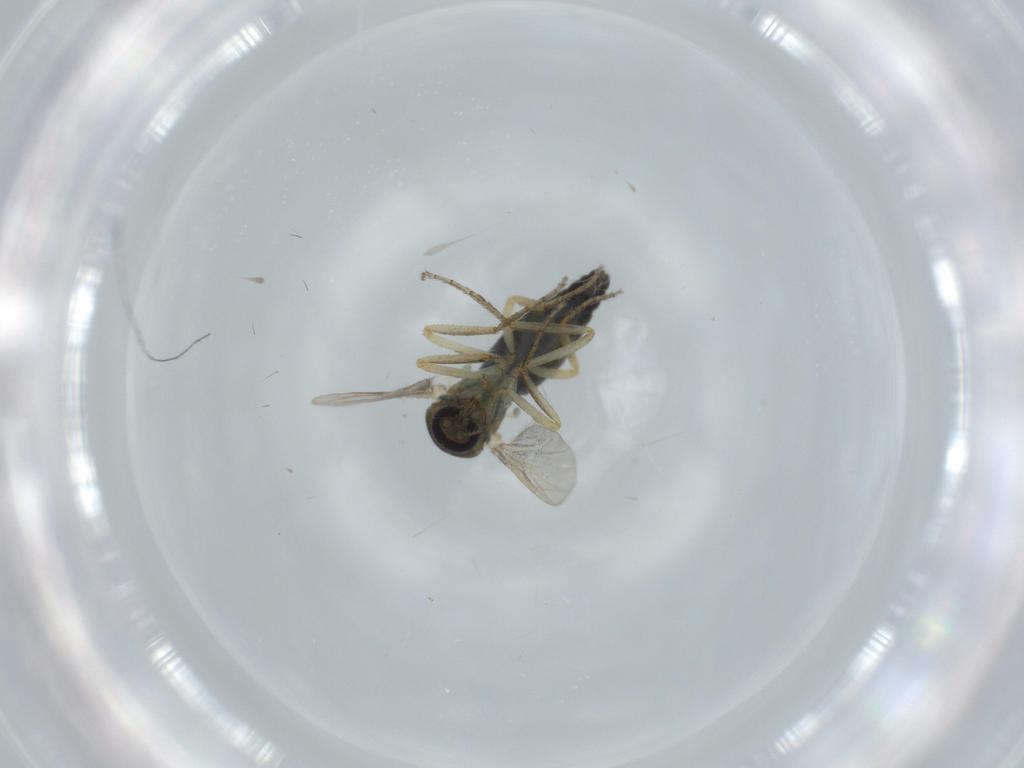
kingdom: Animalia
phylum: Arthropoda
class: Insecta
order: Diptera
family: Ceratopogonidae
